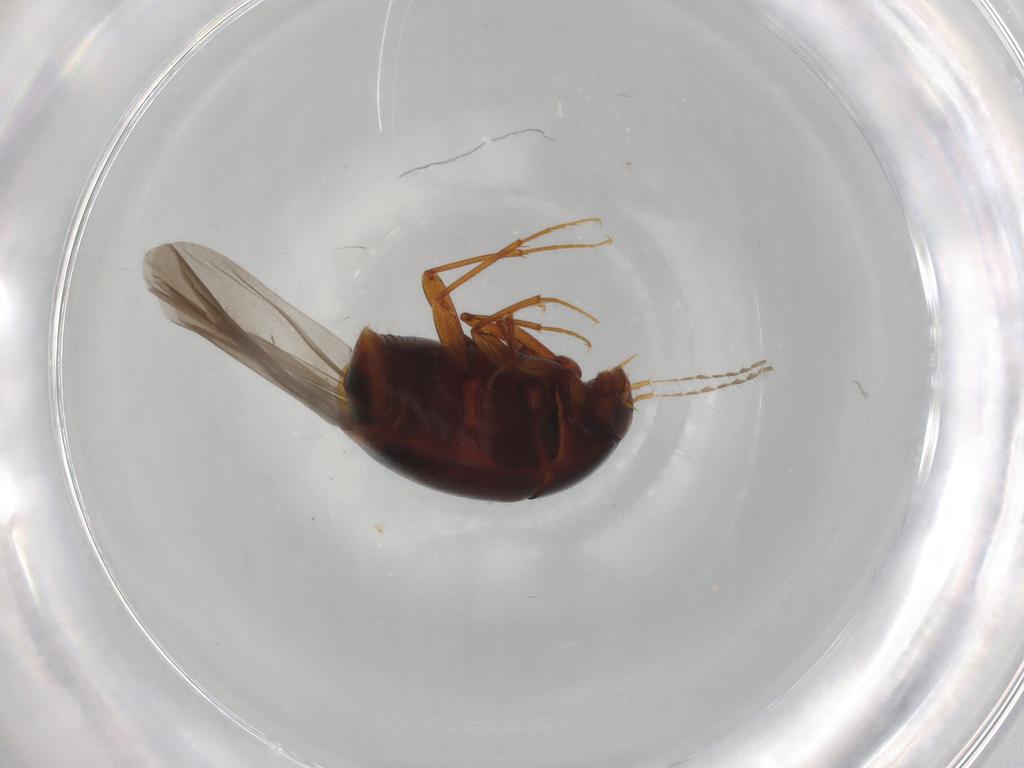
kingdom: Animalia
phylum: Arthropoda
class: Insecta
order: Coleoptera
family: Staphylinidae
